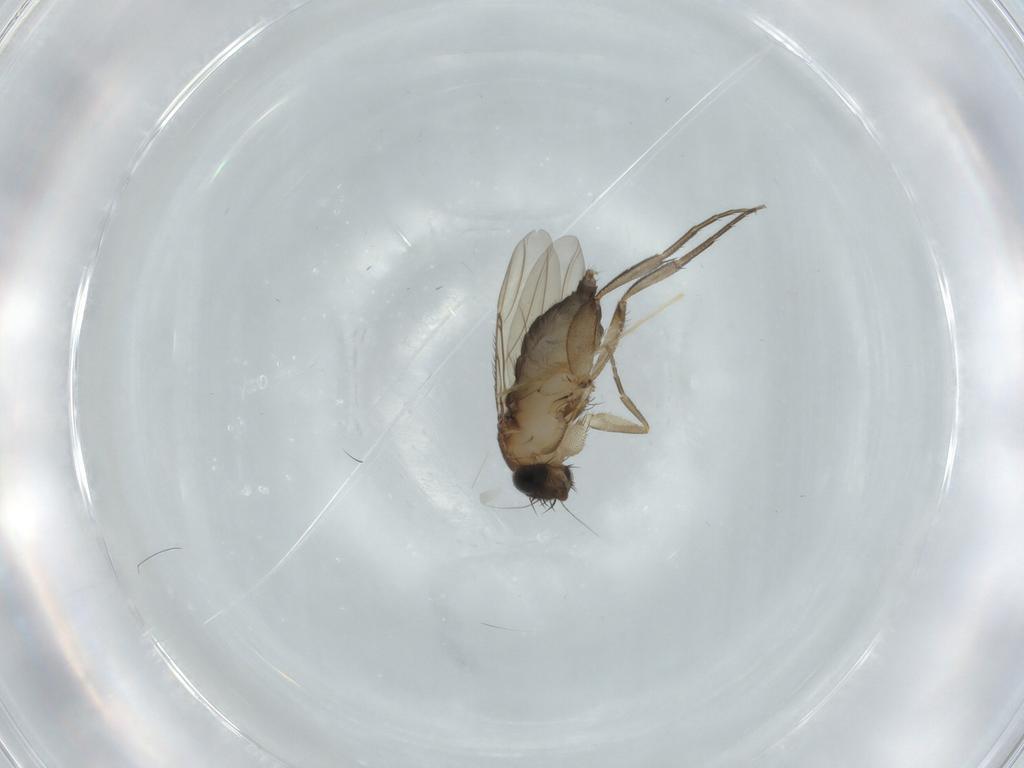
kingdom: Animalia
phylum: Arthropoda
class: Insecta
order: Diptera
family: Phoridae
